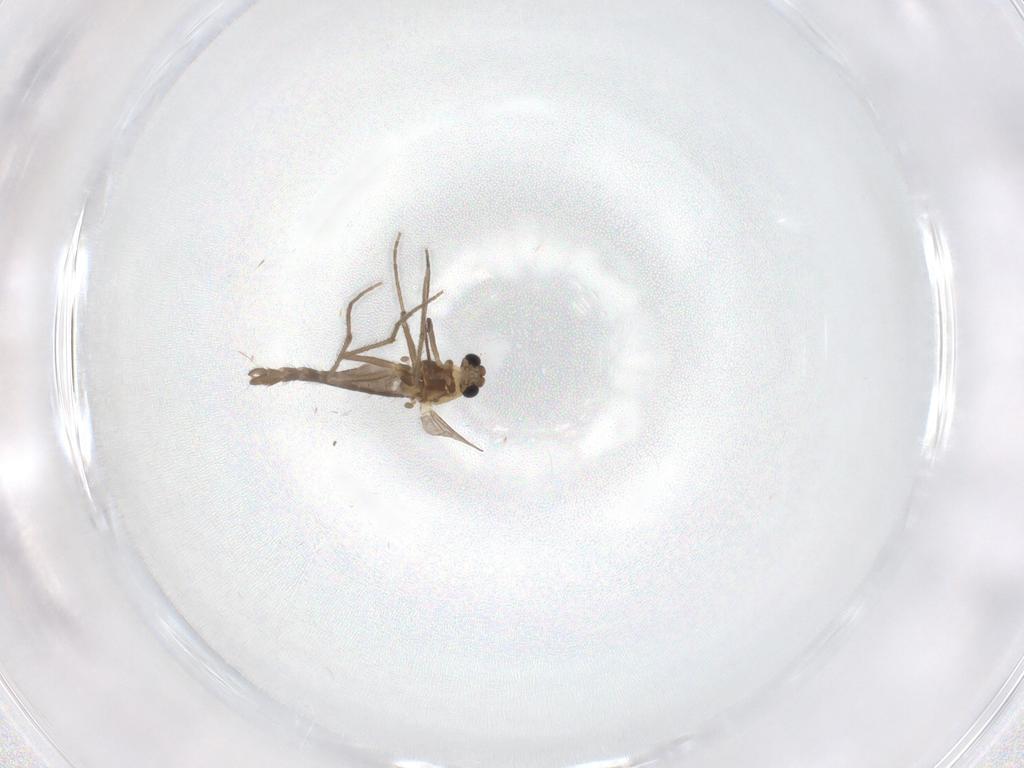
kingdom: Animalia
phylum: Arthropoda
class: Insecta
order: Diptera
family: Chironomidae
